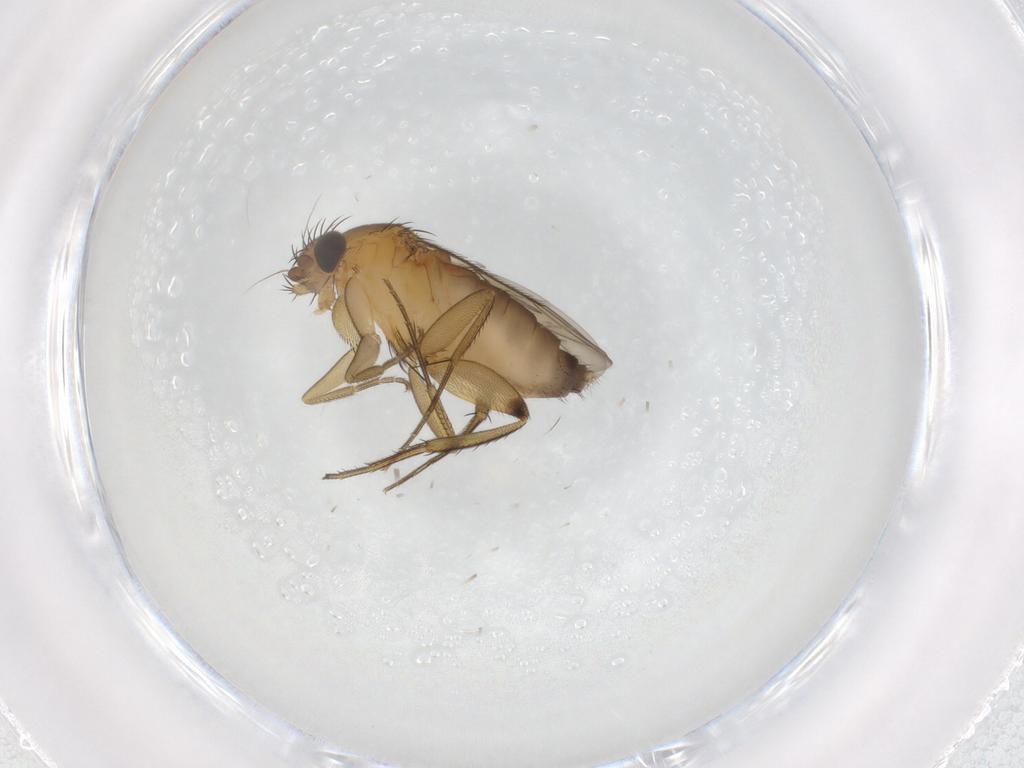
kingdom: Animalia
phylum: Arthropoda
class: Insecta
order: Diptera
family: Phoridae
